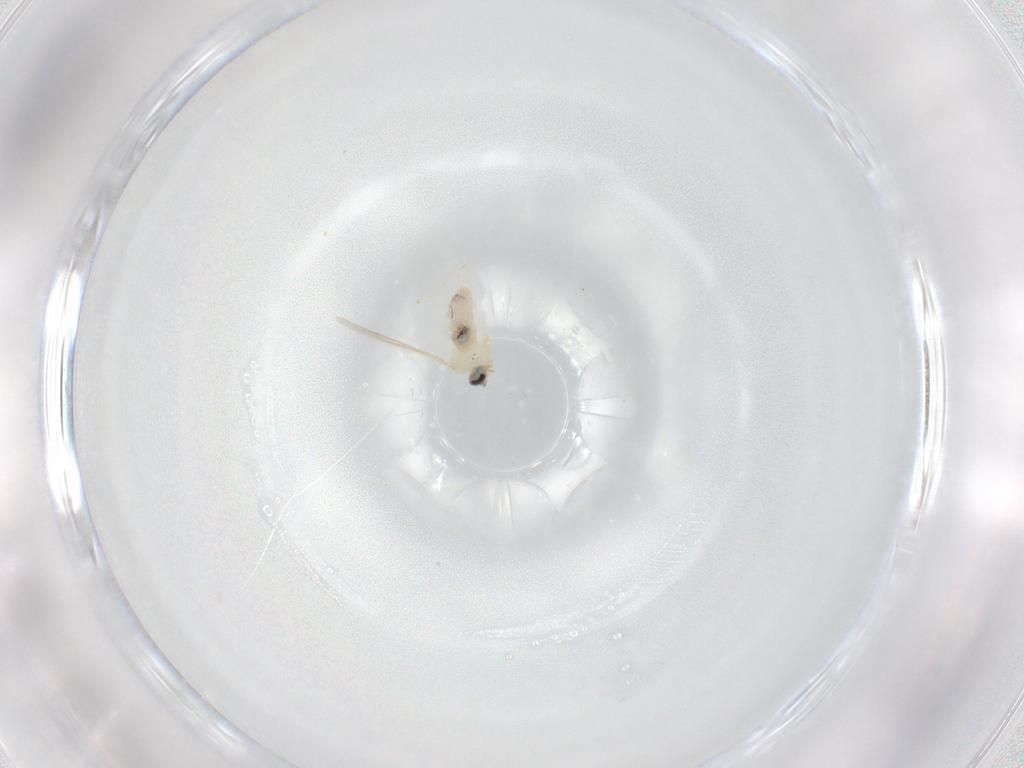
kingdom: Animalia
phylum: Arthropoda
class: Insecta
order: Diptera
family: Cecidomyiidae
